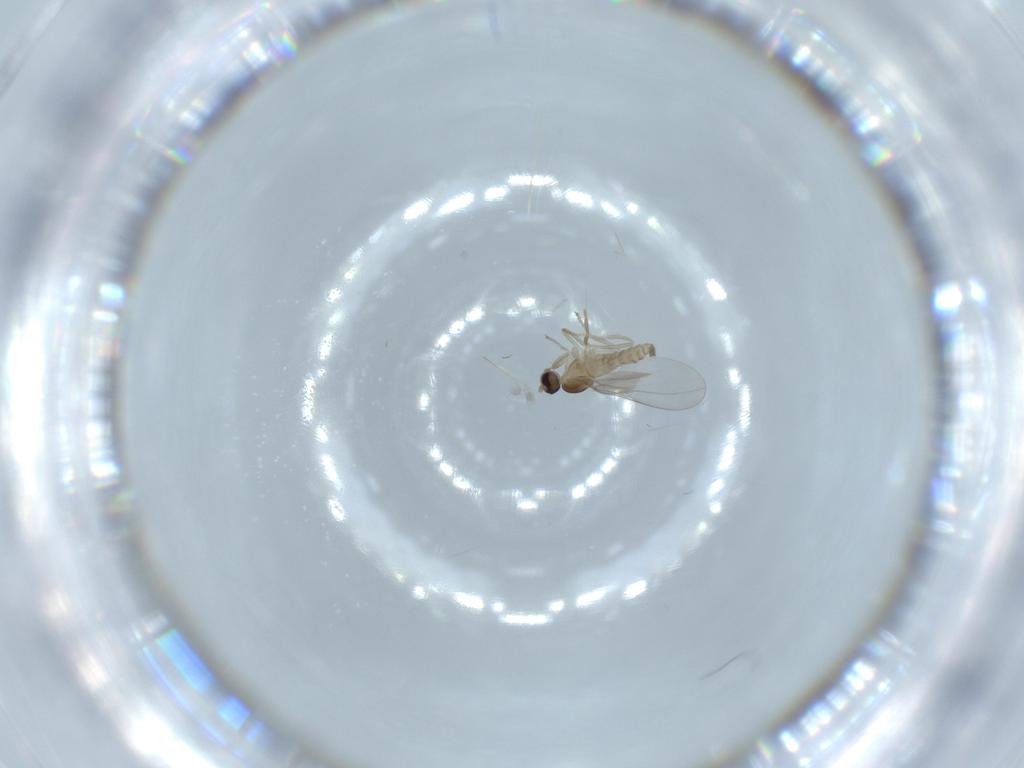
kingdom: Animalia
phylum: Arthropoda
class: Insecta
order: Diptera
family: Cecidomyiidae
